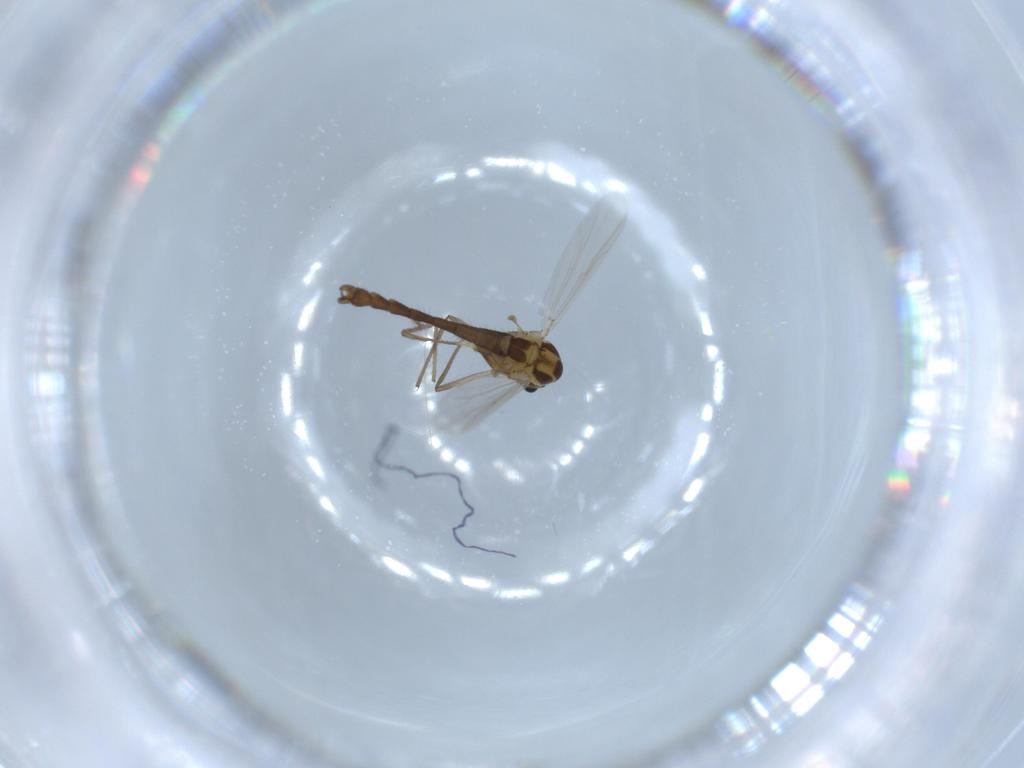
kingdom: Animalia
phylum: Arthropoda
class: Insecta
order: Diptera
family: Chironomidae
